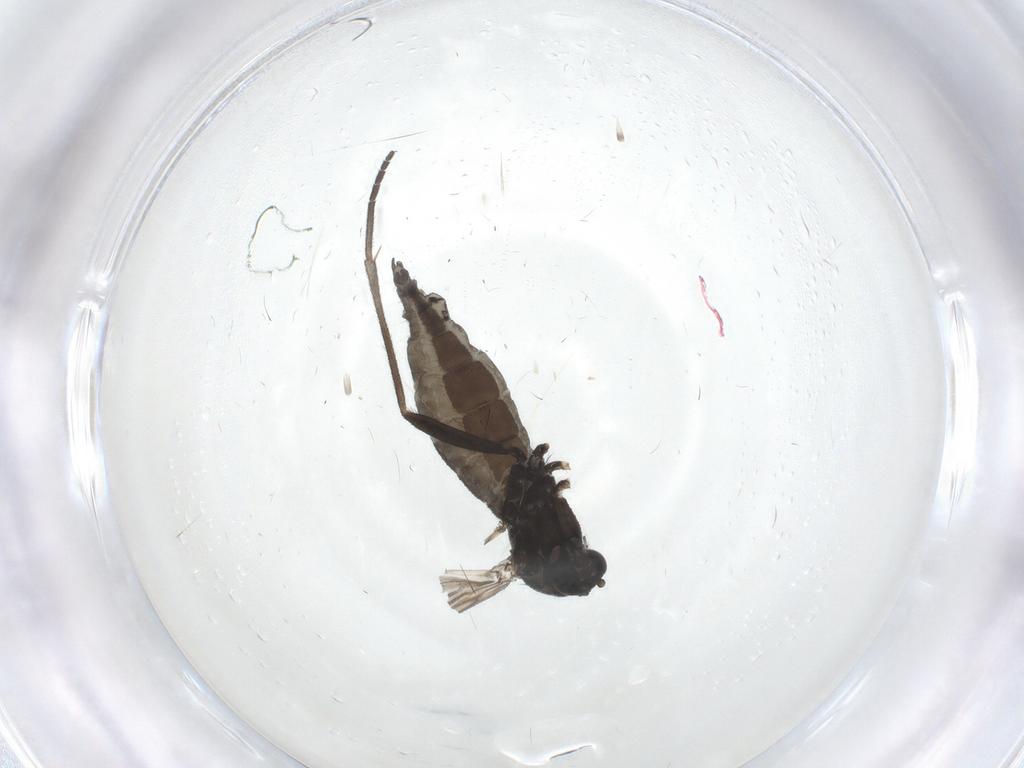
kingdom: Animalia
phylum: Arthropoda
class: Insecta
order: Diptera
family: Sciaridae
